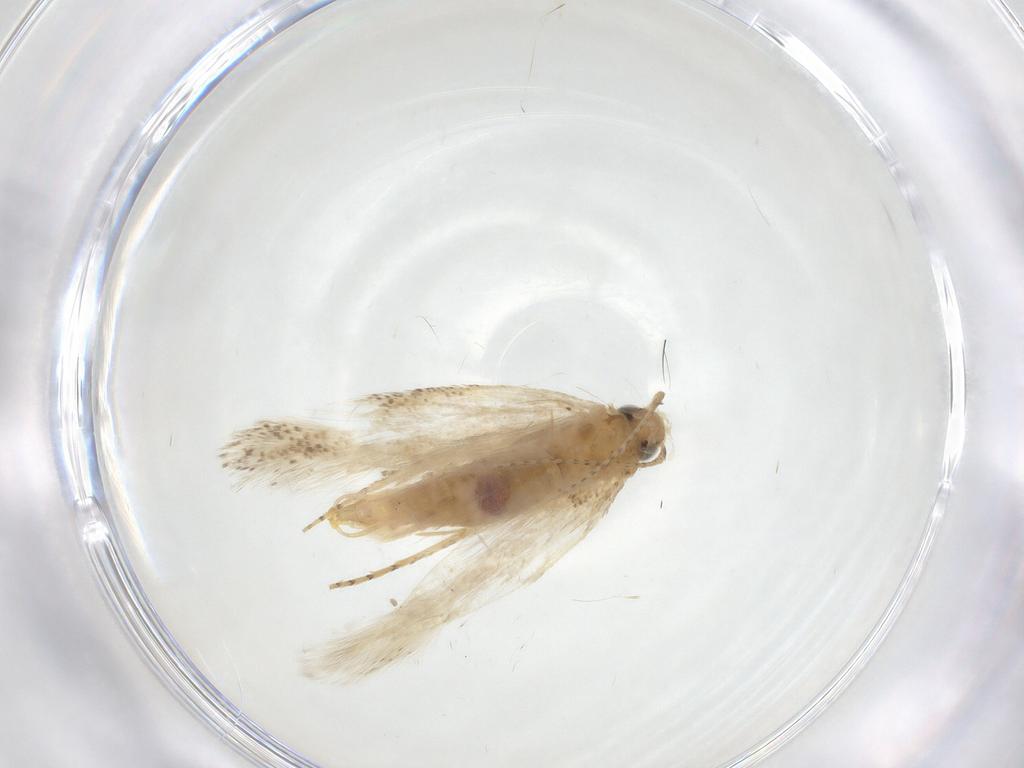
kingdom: Animalia
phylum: Arthropoda
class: Insecta
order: Lepidoptera
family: Gelechiidae
